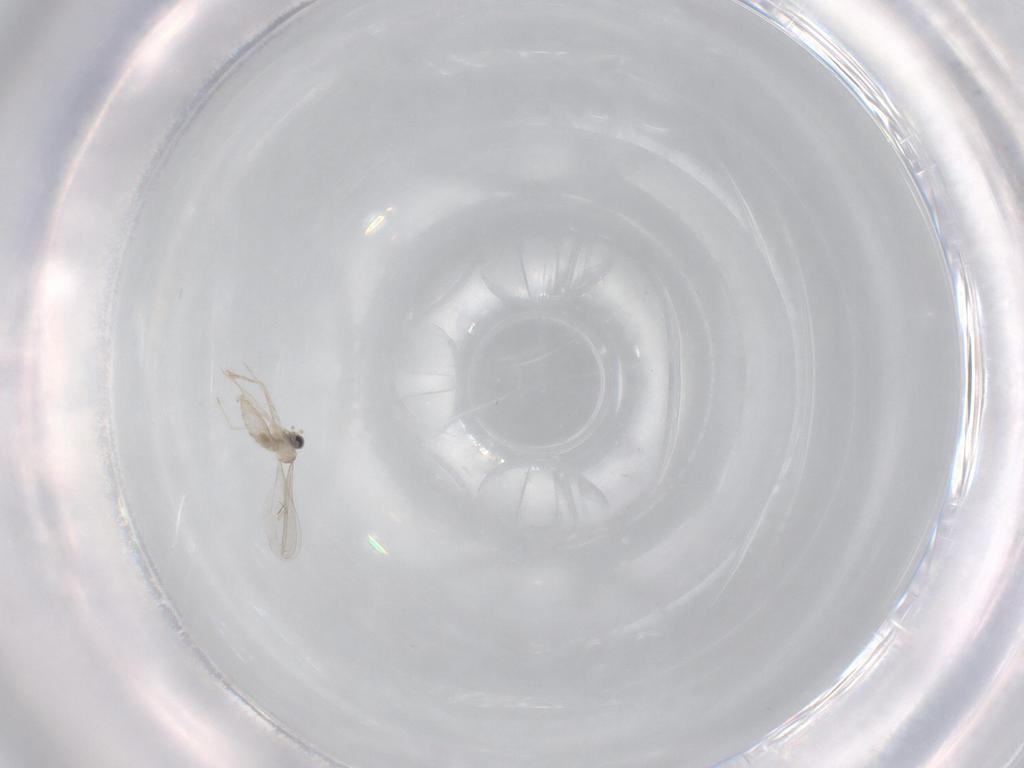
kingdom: Animalia
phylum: Arthropoda
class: Insecta
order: Diptera
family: Cecidomyiidae
